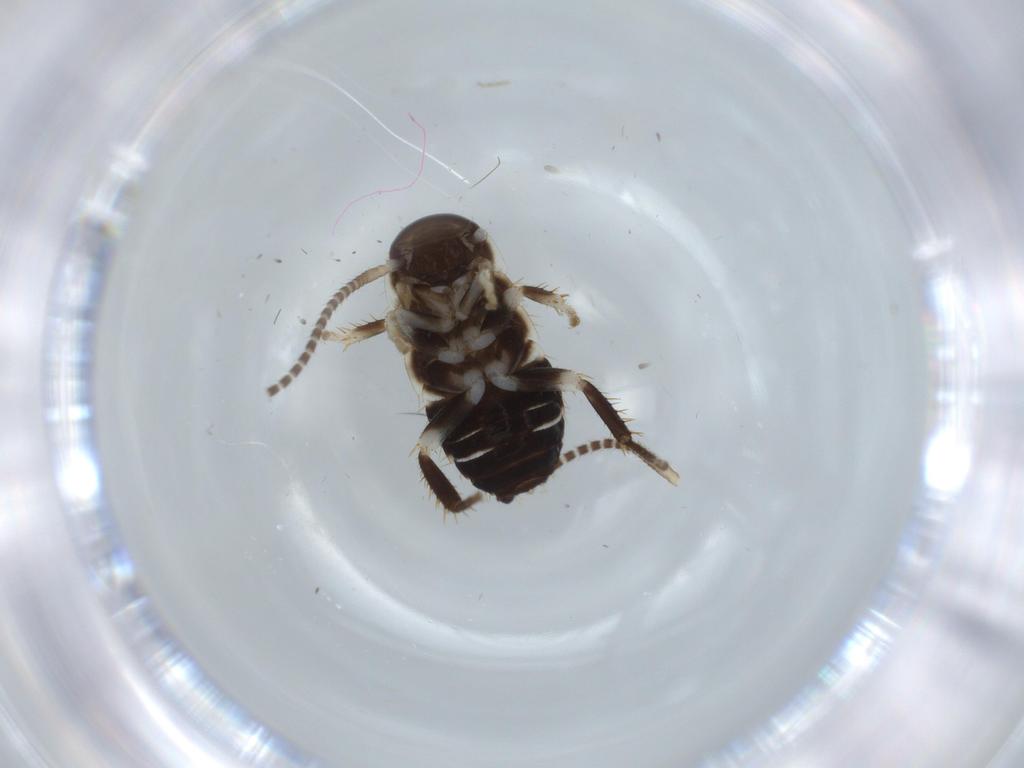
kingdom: Animalia
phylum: Arthropoda
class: Insecta
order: Blattodea
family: Ectobiidae
